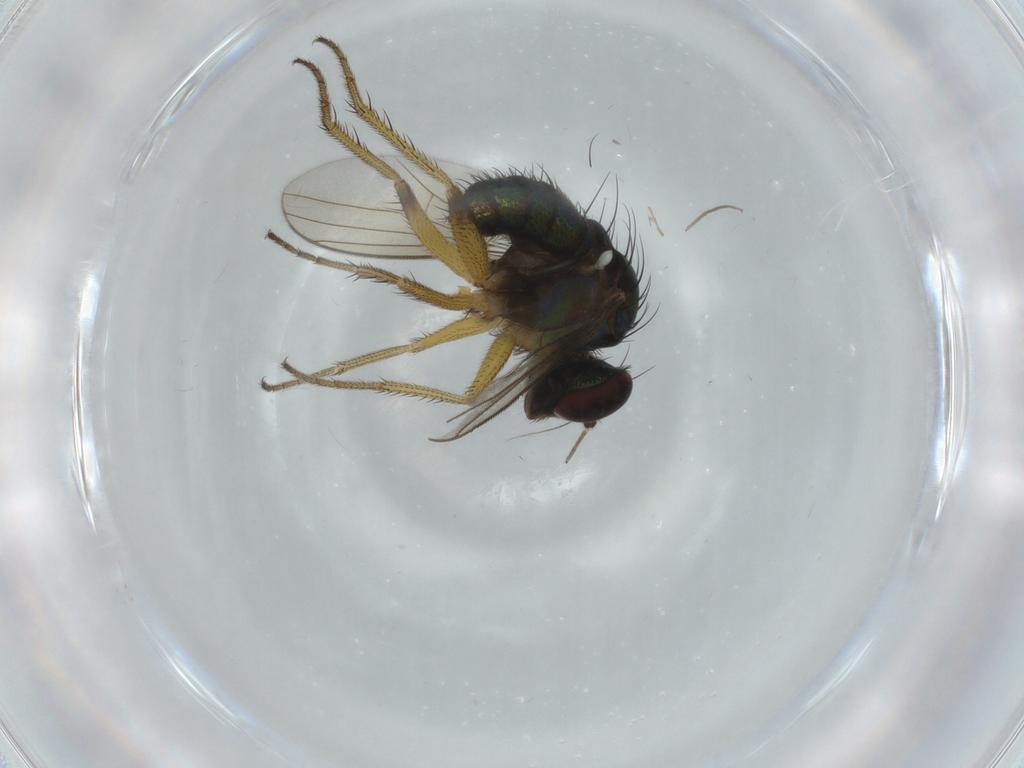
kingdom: Animalia
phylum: Arthropoda
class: Insecta
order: Diptera
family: Dolichopodidae
